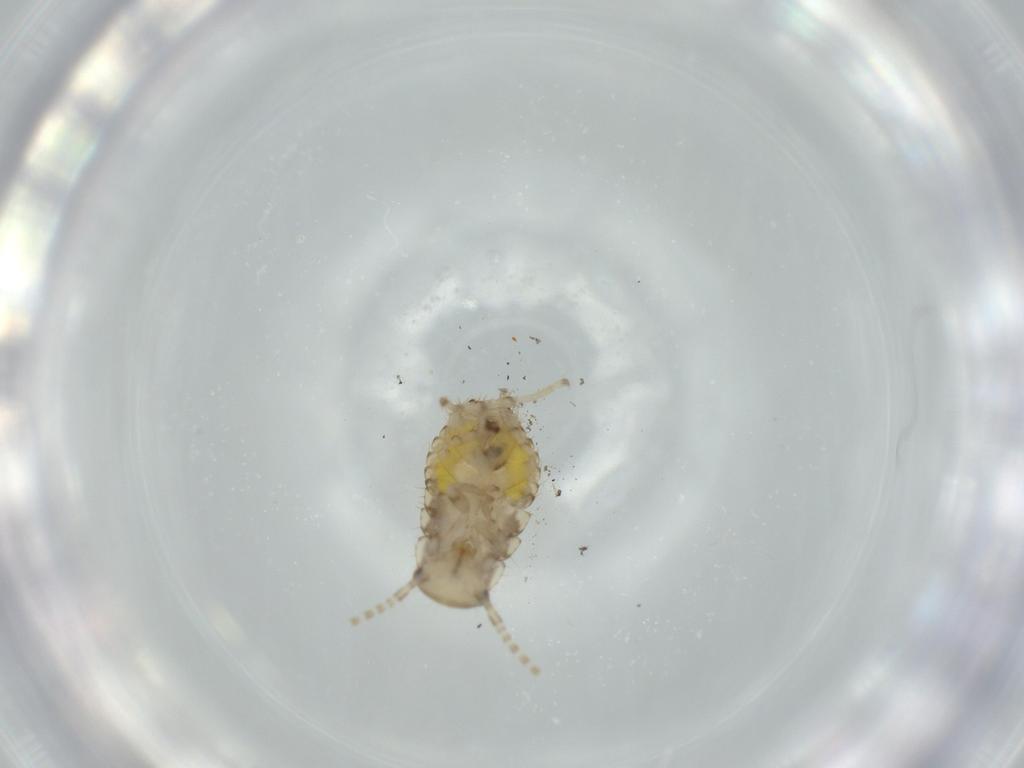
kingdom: Animalia
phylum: Arthropoda
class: Insecta
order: Blattodea
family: Ectobiidae
